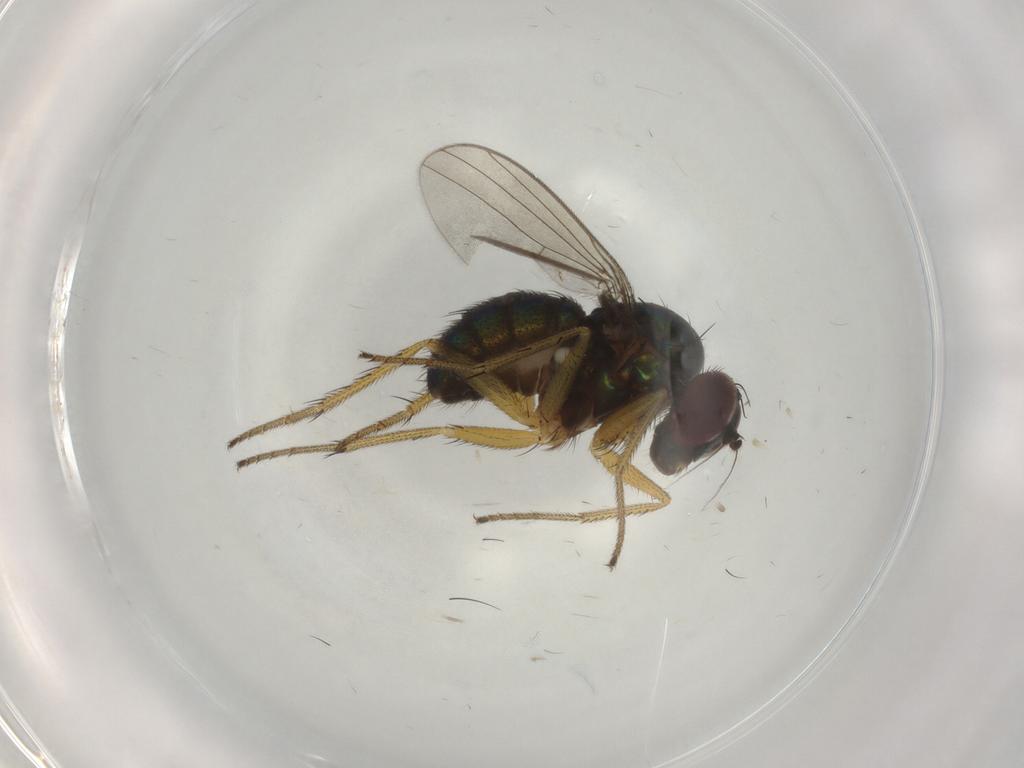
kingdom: Animalia
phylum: Arthropoda
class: Insecta
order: Diptera
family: Dolichopodidae
